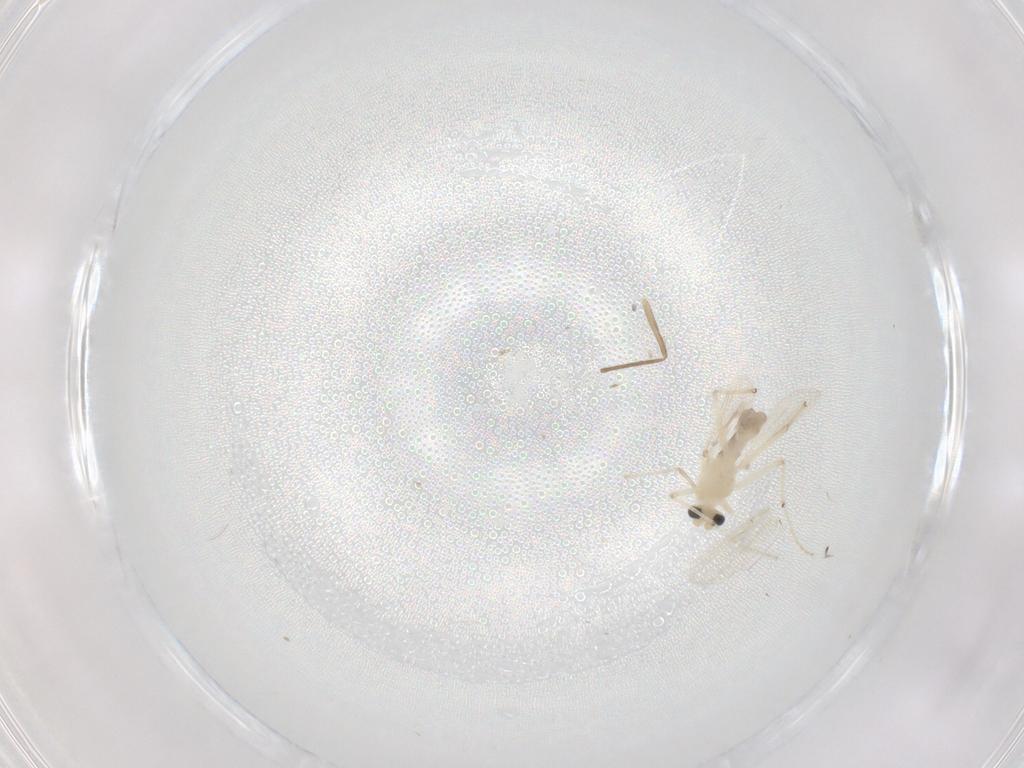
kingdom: Animalia
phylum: Arthropoda
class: Insecta
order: Diptera
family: Chironomidae
